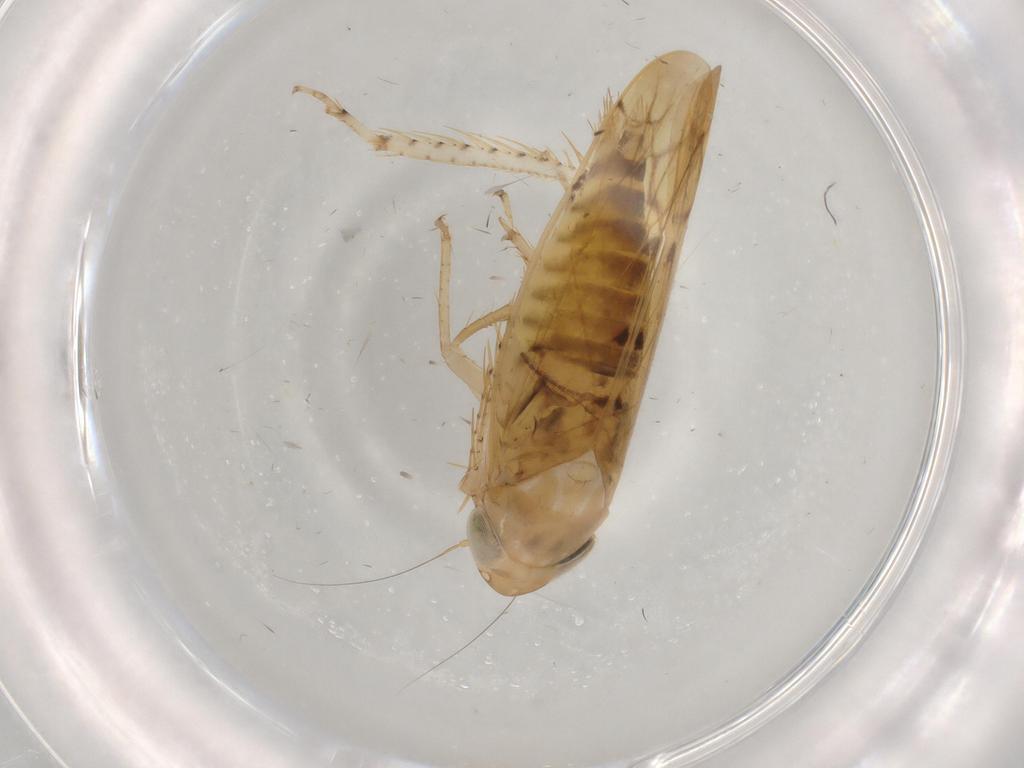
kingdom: Animalia
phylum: Arthropoda
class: Insecta
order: Hemiptera
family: Cicadellidae
